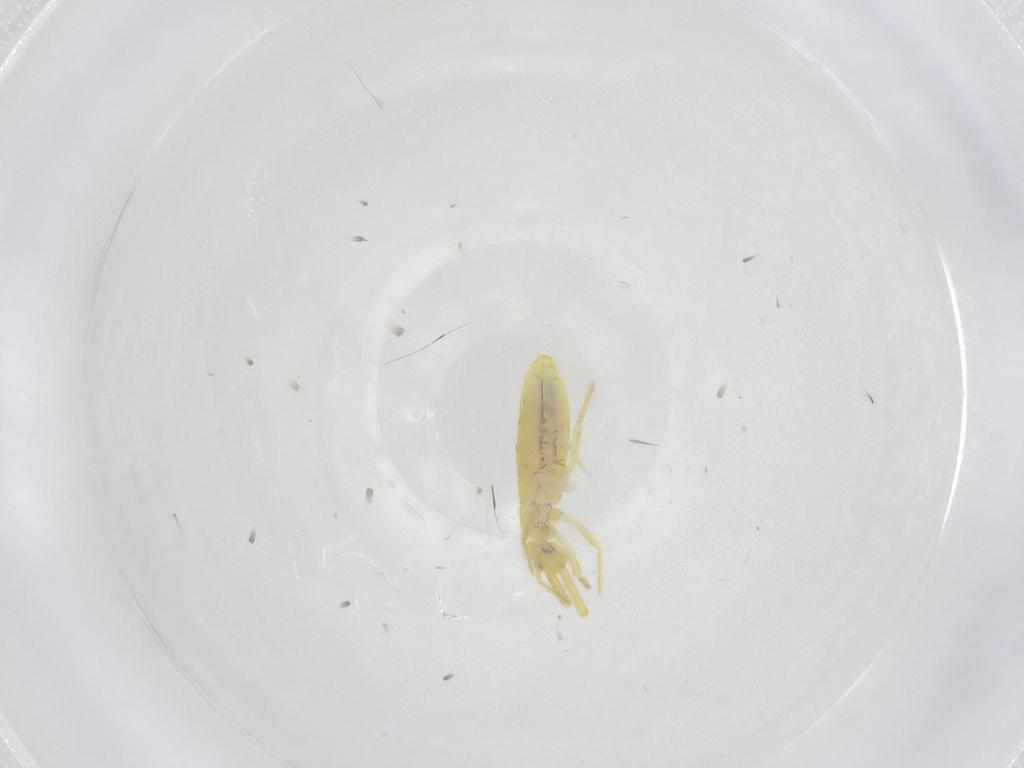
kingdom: Animalia
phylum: Arthropoda
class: Collembola
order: Entomobryomorpha
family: Paronellidae
